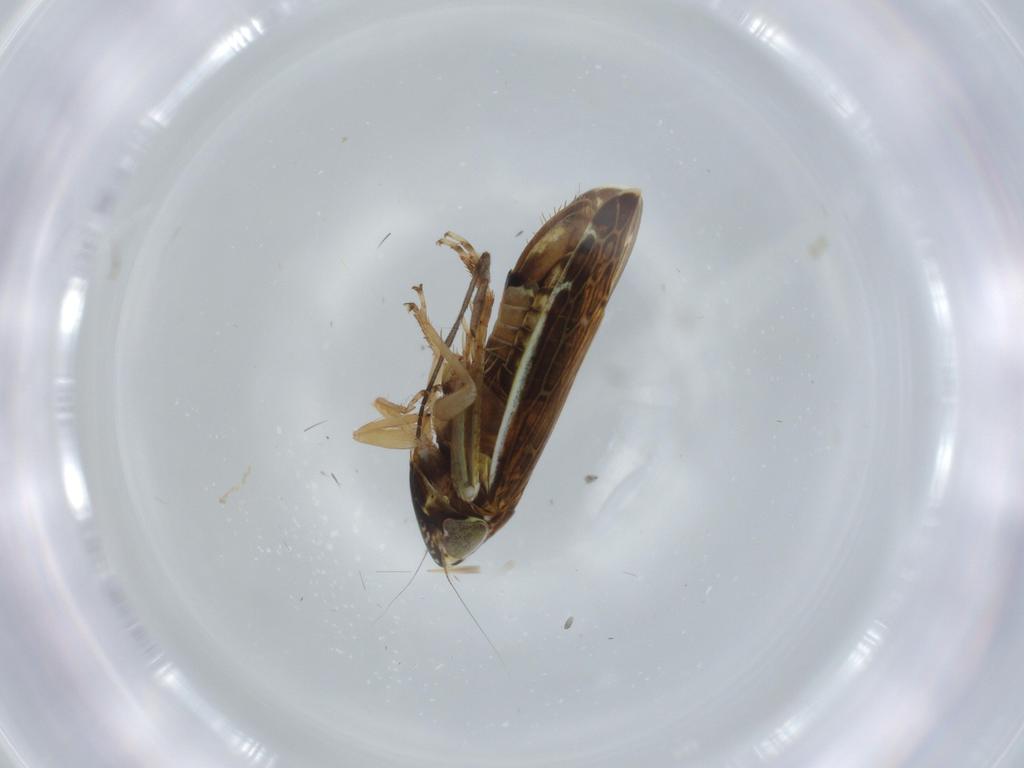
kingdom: Animalia
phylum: Arthropoda
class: Insecta
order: Hemiptera
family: Cicadellidae
